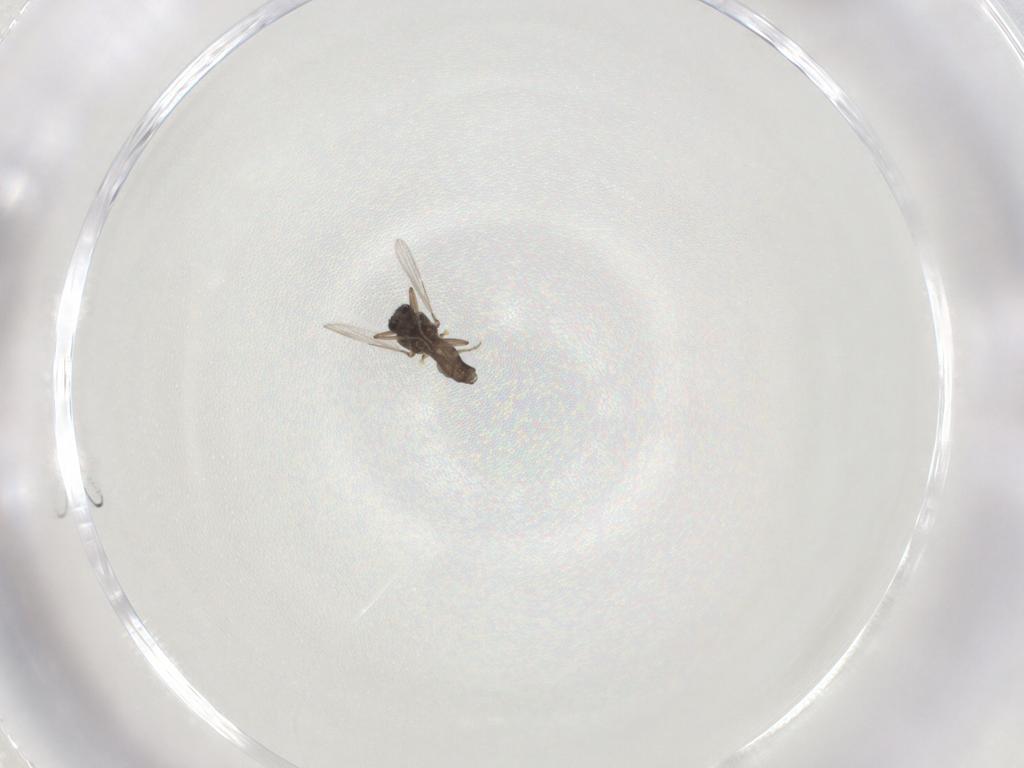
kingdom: Animalia
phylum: Arthropoda
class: Insecta
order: Diptera
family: Ceratopogonidae
